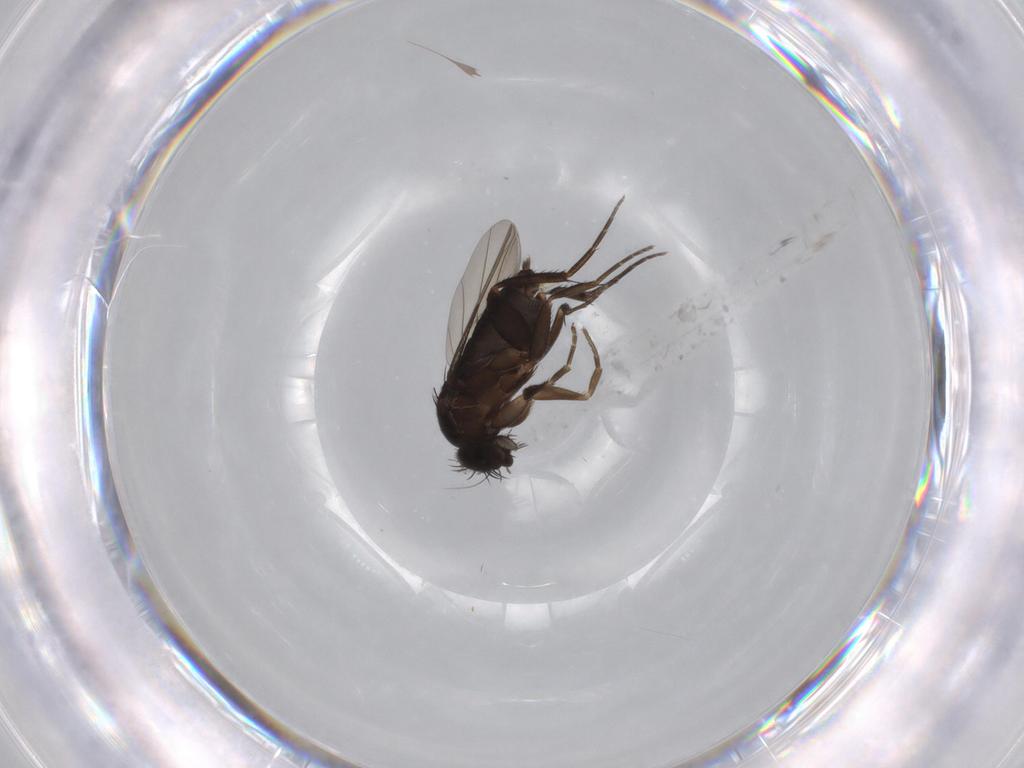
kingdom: Animalia
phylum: Arthropoda
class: Insecta
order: Diptera
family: Phoridae
